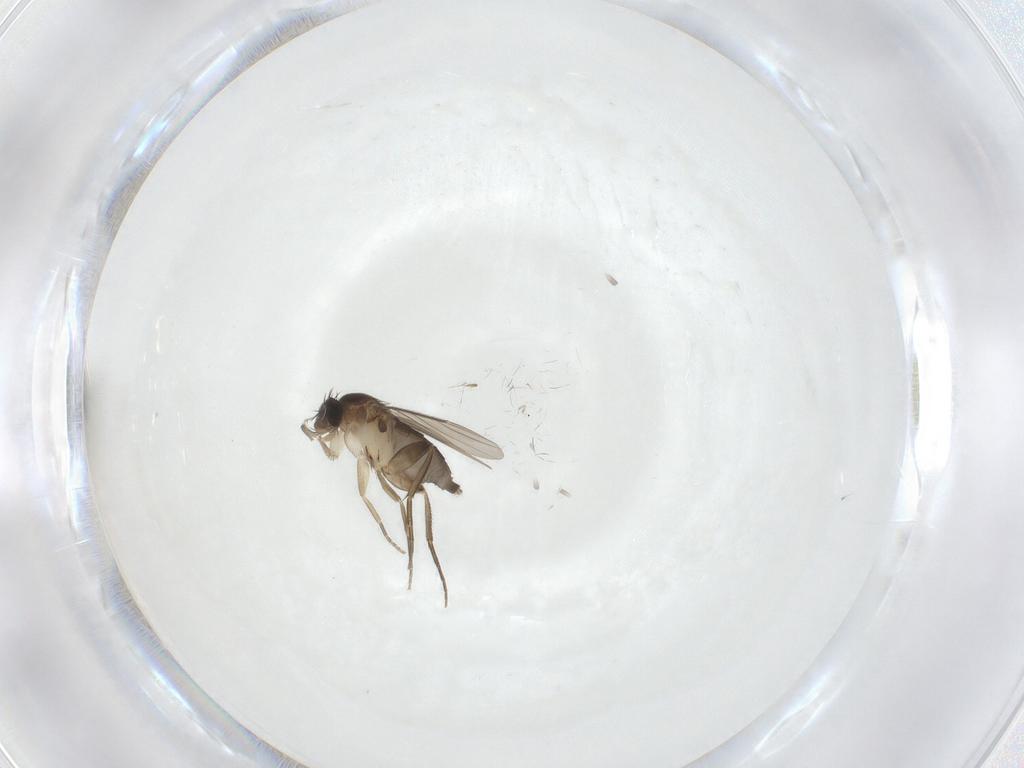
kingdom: Animalia
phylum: Arthropoda
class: Insecta
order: Diptera
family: Phoridae
